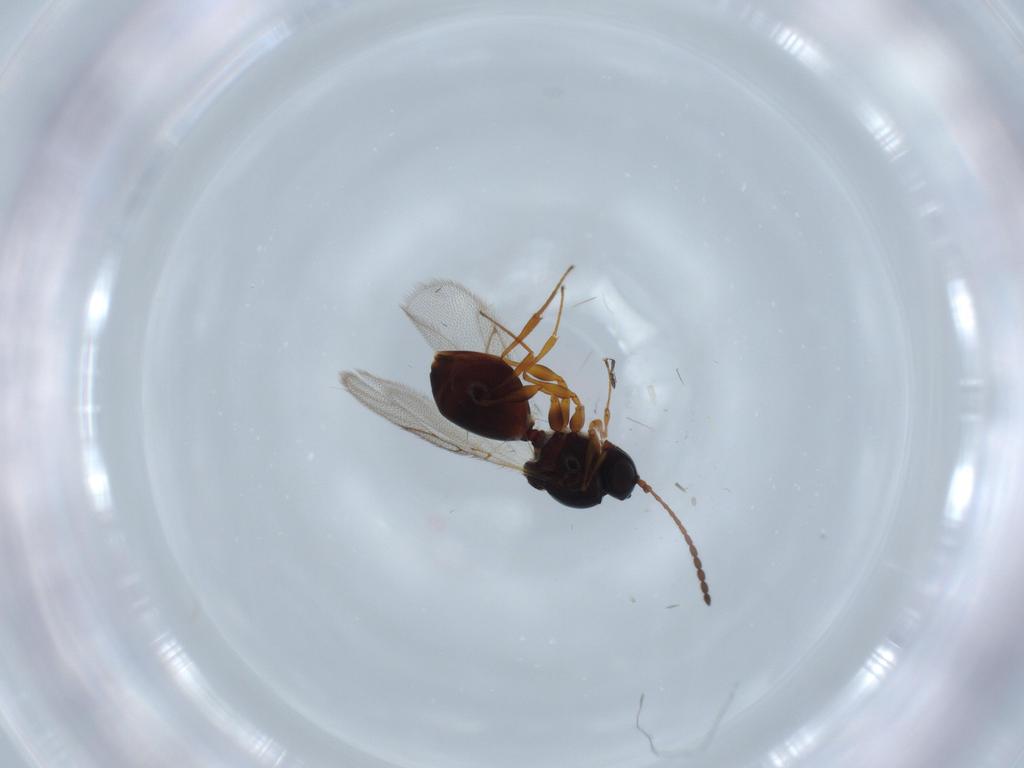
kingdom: Animalia
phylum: Arthropoda
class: Insecta
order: Hymenoptera
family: Figitidae
